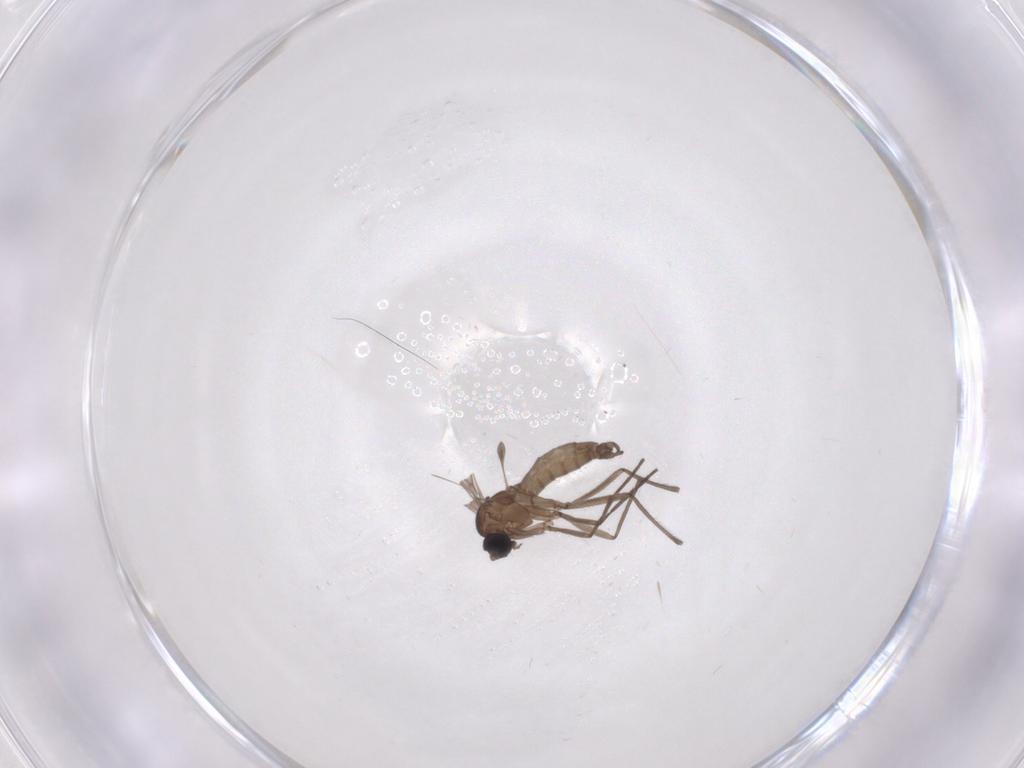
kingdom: Animalia
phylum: Arthropoda
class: Insecta
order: Diptera
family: Sciaridae
